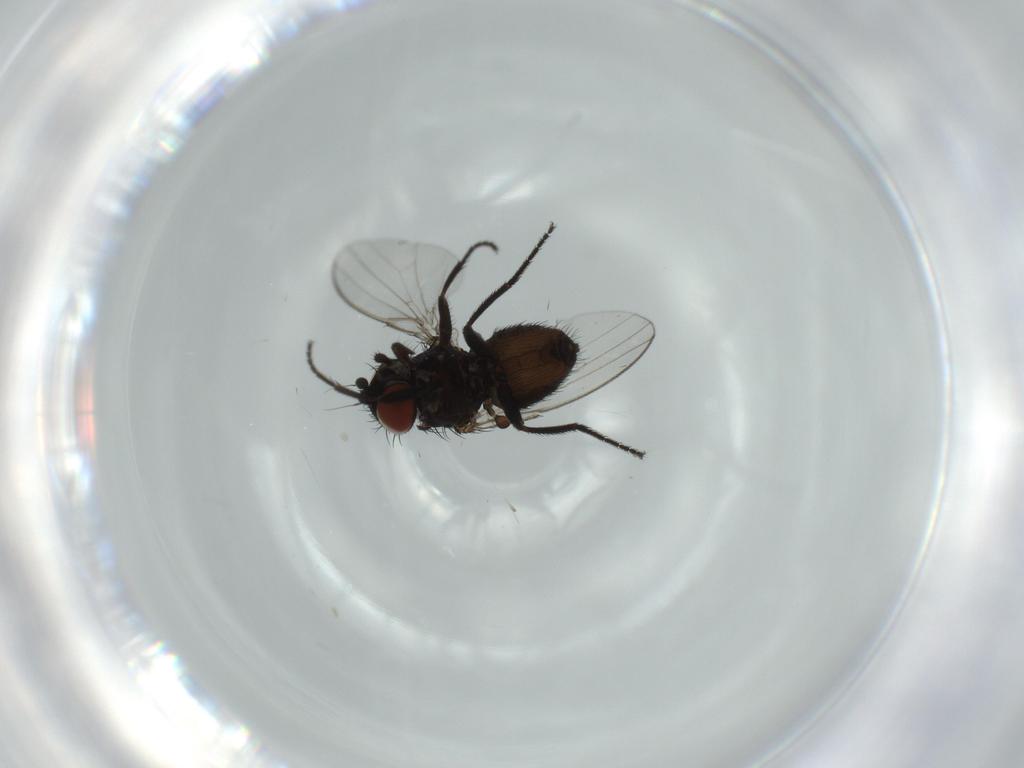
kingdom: Animalia
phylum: Arthropoda
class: Insecta
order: Diptera
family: Milichiidae
